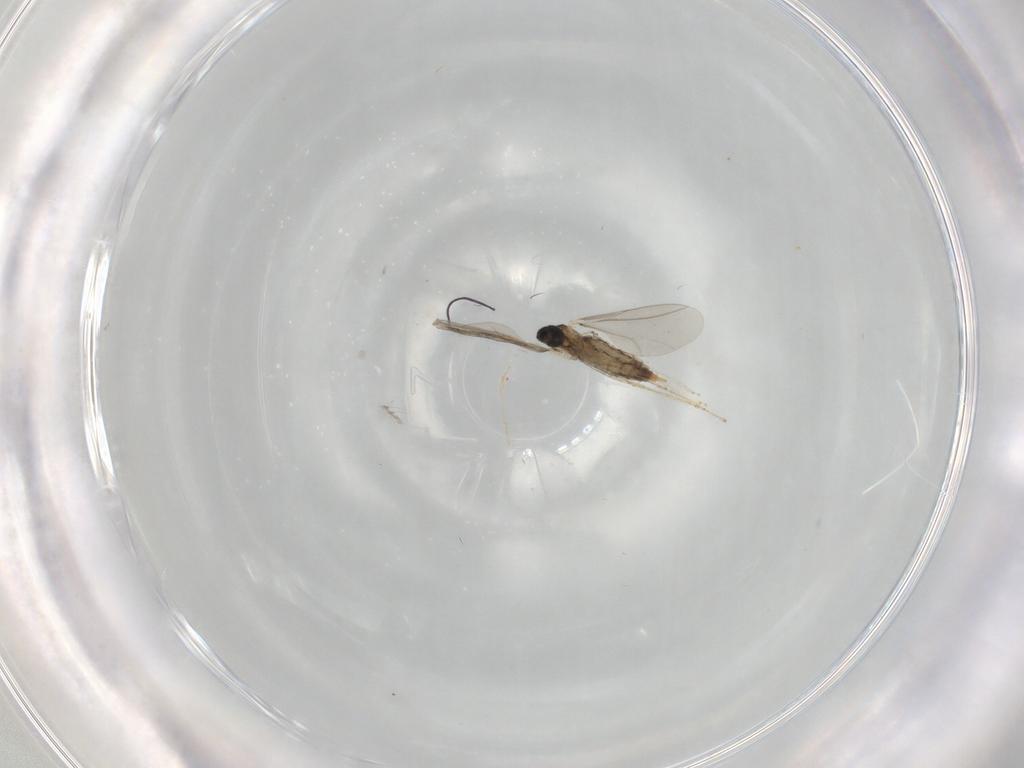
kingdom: Animalia
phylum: Arthropoda
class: Insecta
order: Diptera
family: Cecidomyiidae
